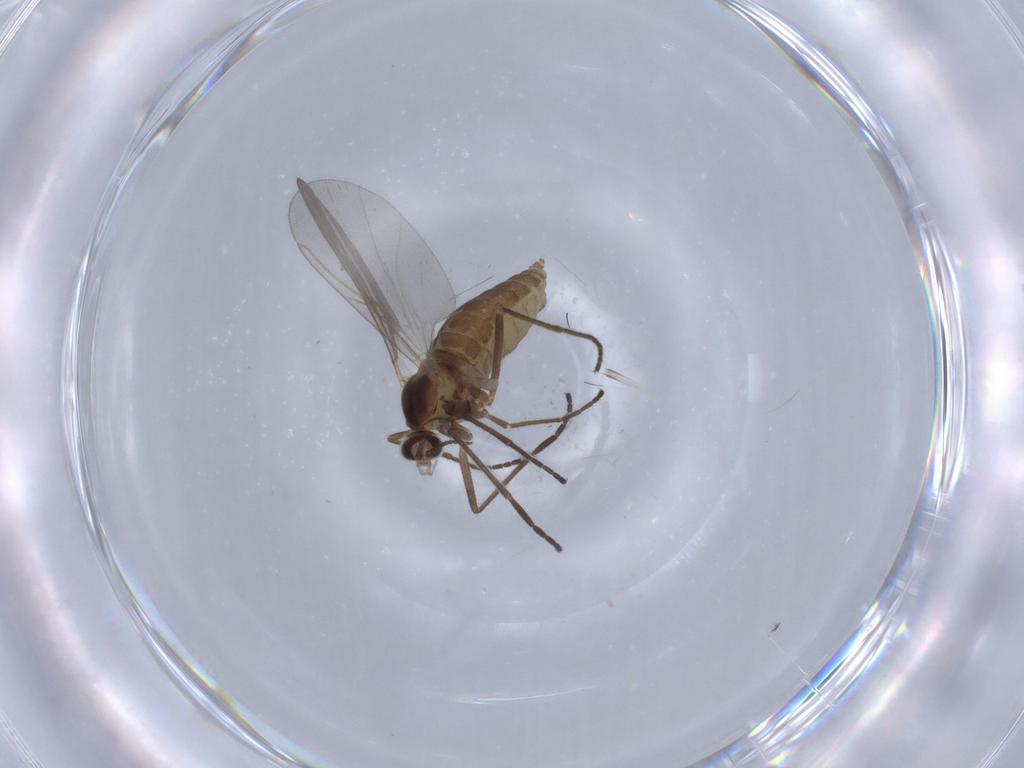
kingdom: Animalia
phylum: Arthropoda
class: Insecta
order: Diptera
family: Cecidomyiidae
